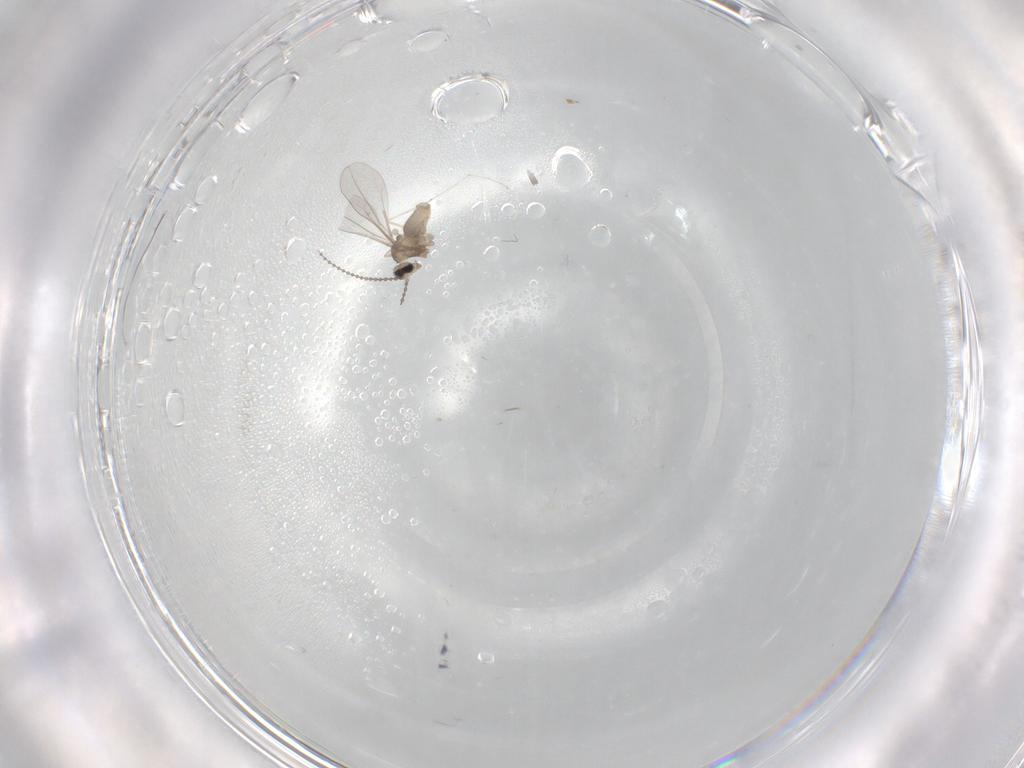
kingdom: Animalia
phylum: Arthropoda
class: Insecta
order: Diptera
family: Cecidomyiidae
